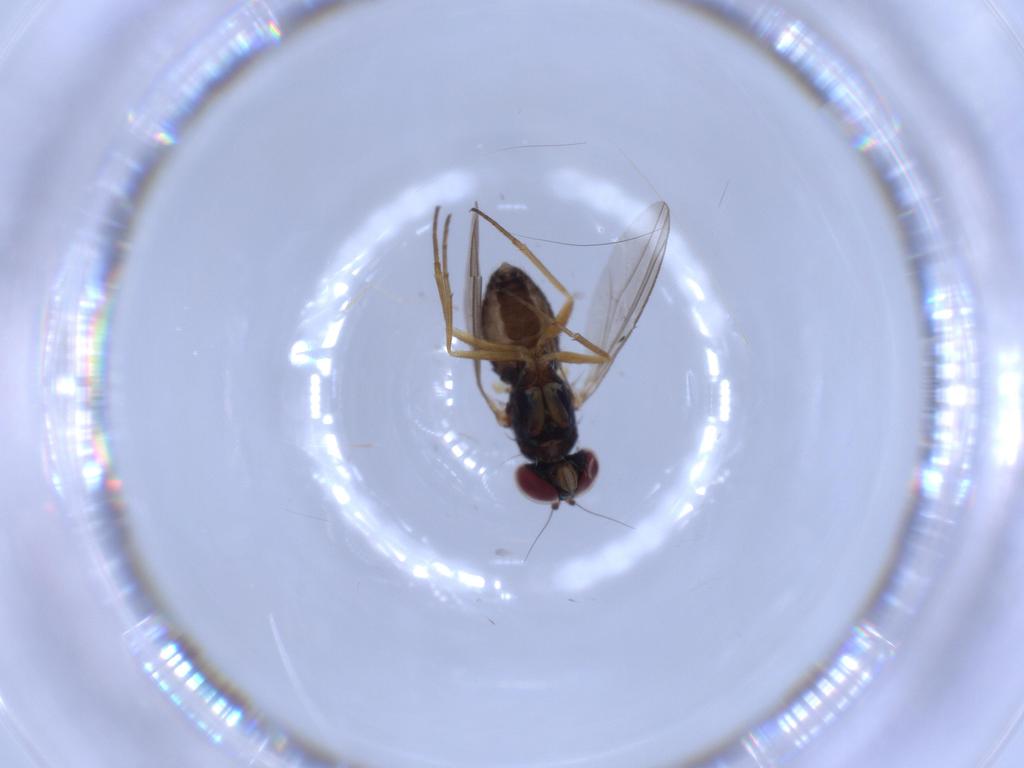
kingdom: Animalia
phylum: Arthropoda
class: Insecta
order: Diptera
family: Dolichopodidae
